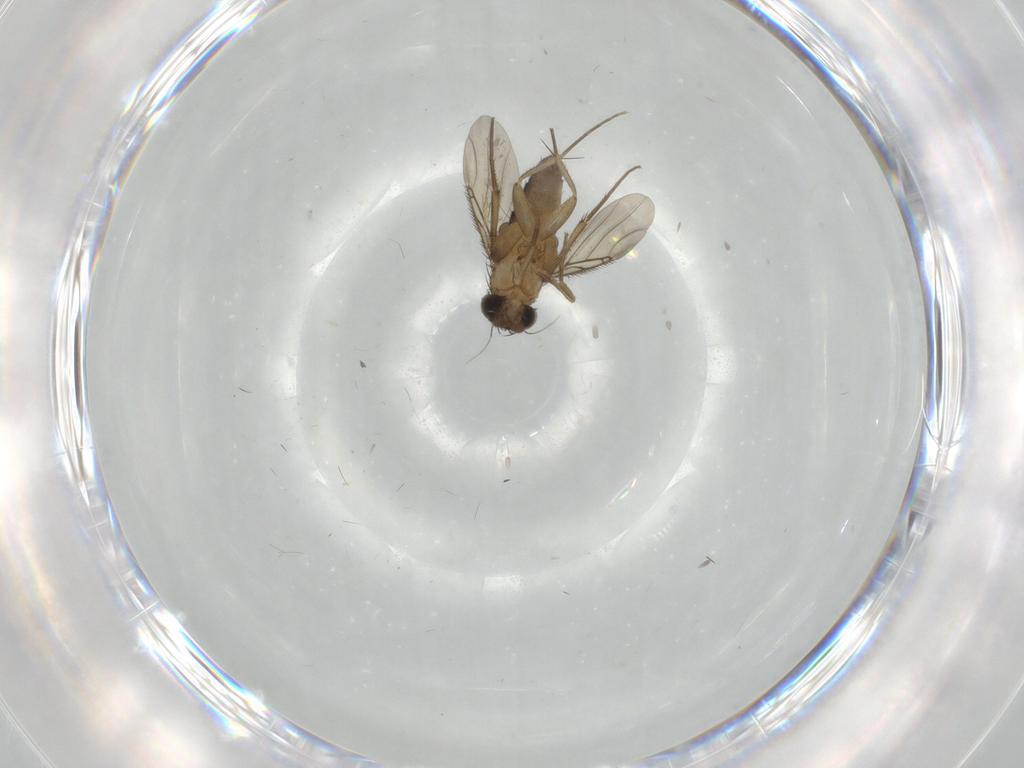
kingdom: Animalia
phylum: Arthropoda
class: Insecta
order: Diptera
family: Phoridae
